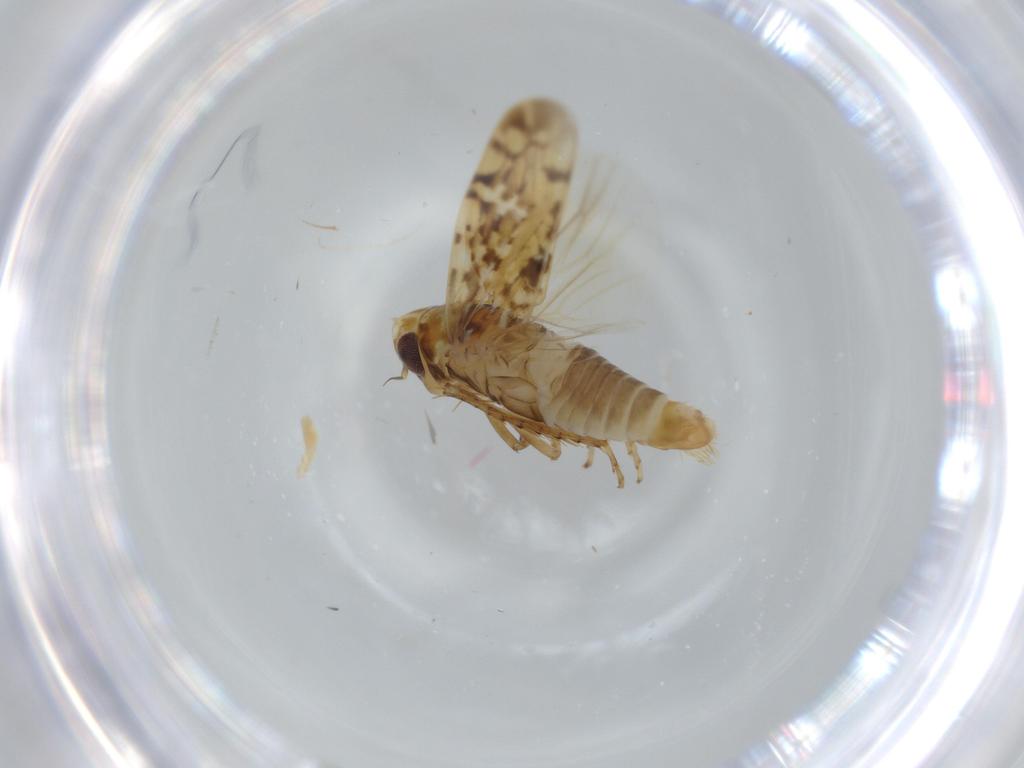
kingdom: Animalia
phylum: Arthropoda
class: Insecta
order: Hemiptera
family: Cicadellidae
